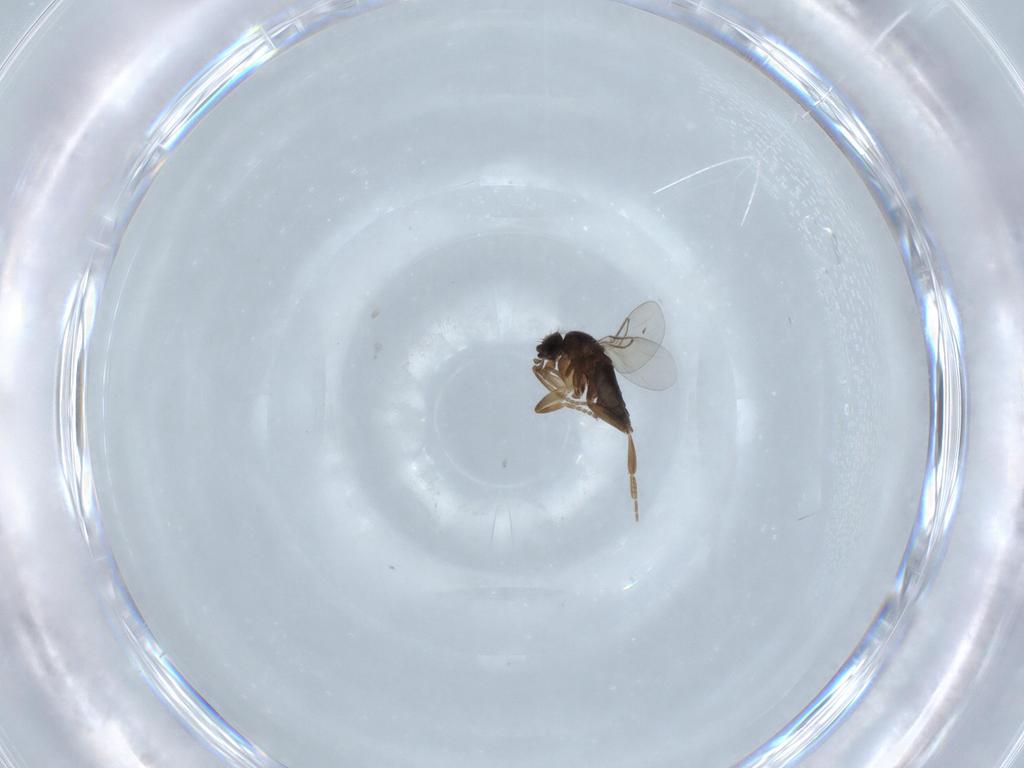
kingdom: Animalia
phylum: Arthropoda
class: Insecta
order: Diptera
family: Phoridae
